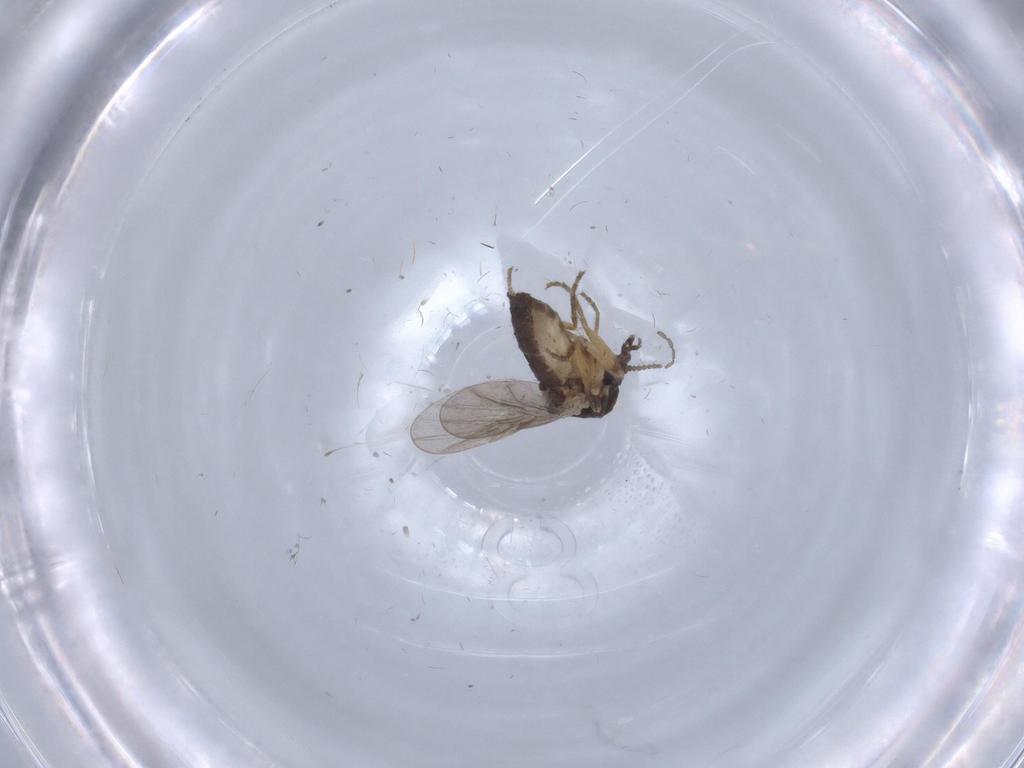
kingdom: Animalia
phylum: Arthropoda
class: Insecta
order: Diptera
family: Ceratopogonidae
